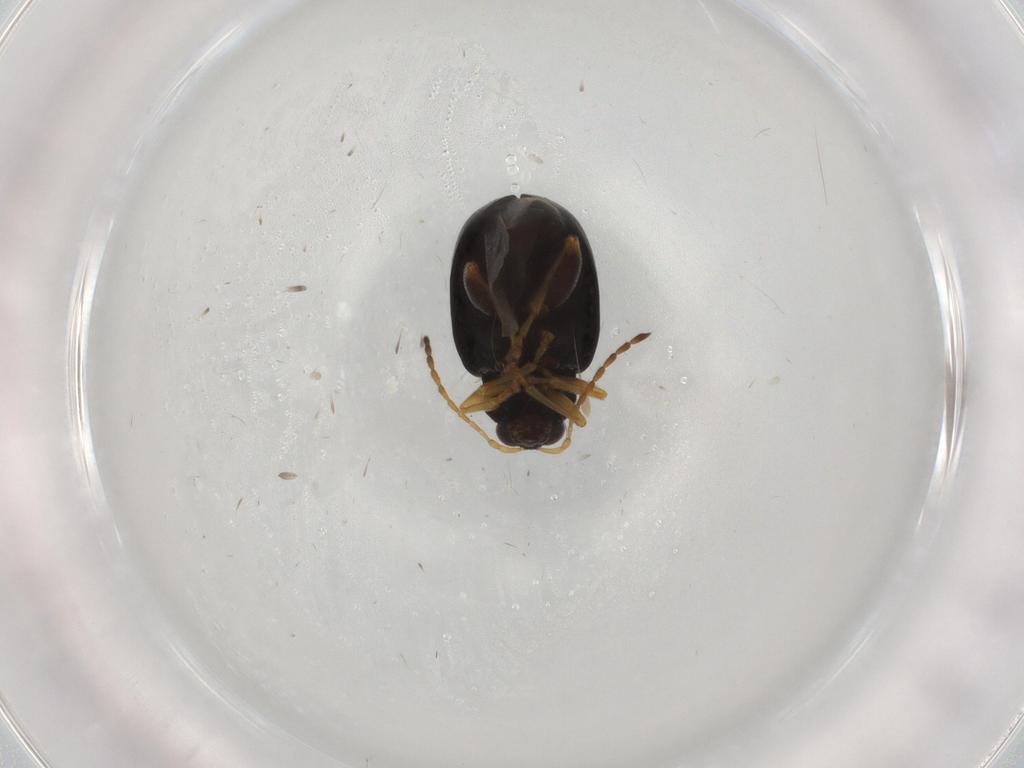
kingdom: Animalia
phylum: Arthropoda
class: Insecta
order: Coleoptera
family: Chrysomelidae
